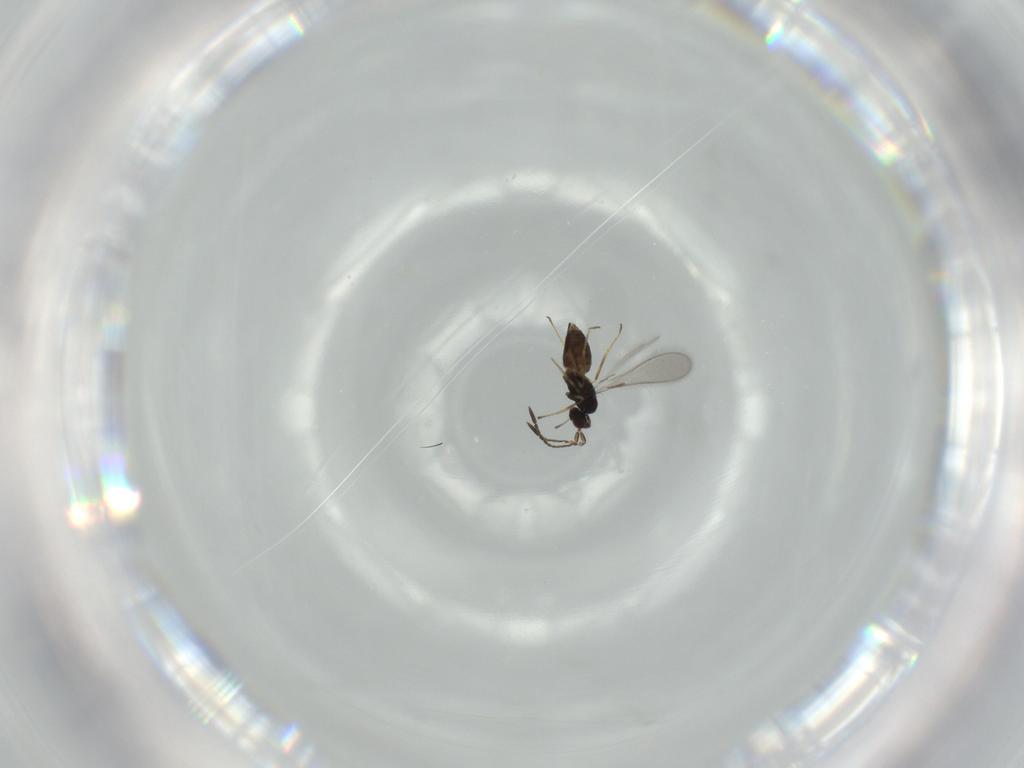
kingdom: Animalia
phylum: Arthropoda
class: Insecta
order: Hymenoptera
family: Mymaridae
